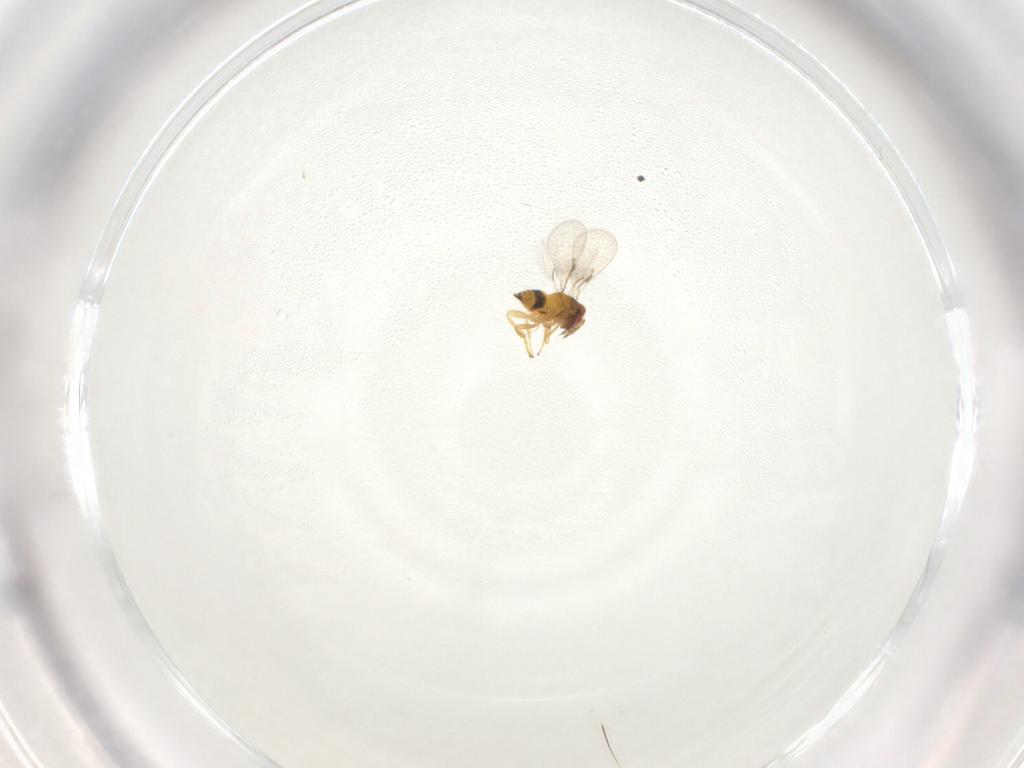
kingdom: Animalia
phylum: Arthropoda
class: Insecta
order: Hymenoptera
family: Trichogrammatidae
